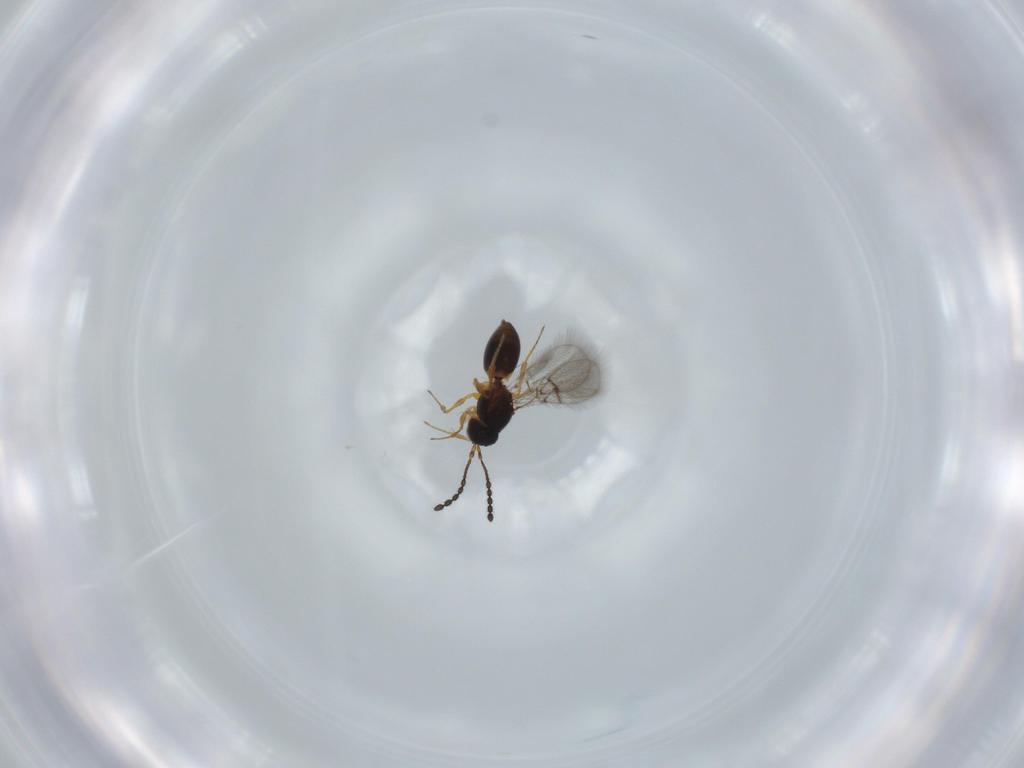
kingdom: Animalia
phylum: Arthropoda
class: Insecta
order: Hymenoptera
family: Figitidae
